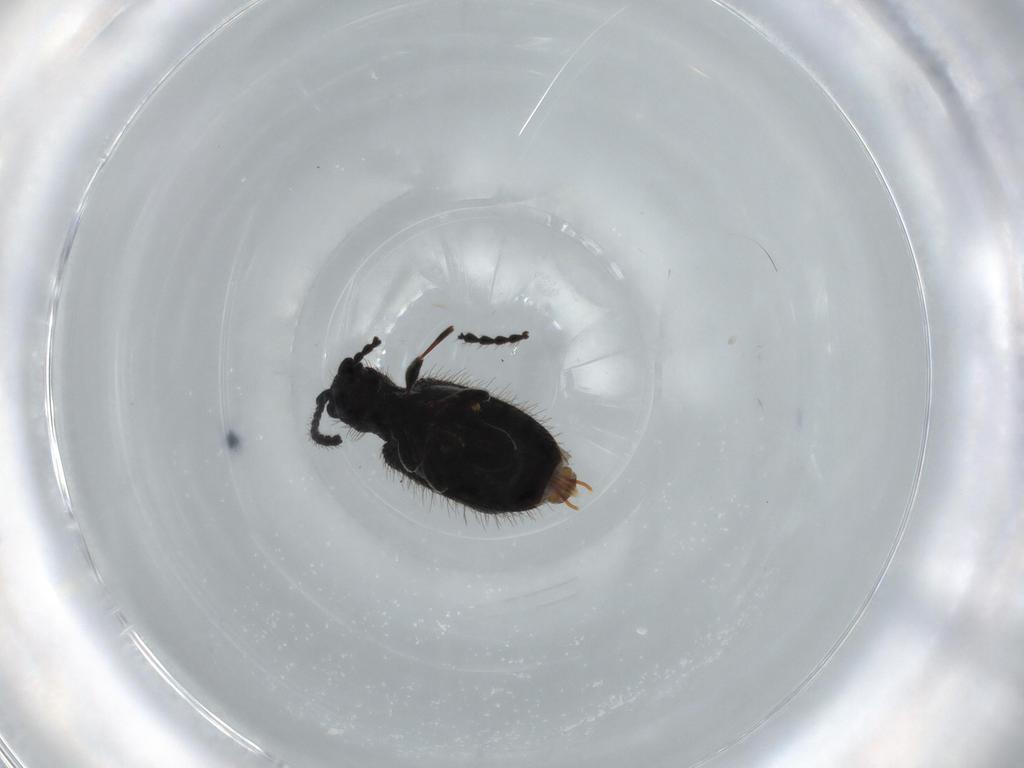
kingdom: Animalia
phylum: Arthropoda
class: Insecta
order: Coleoptera
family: Ptinidae
